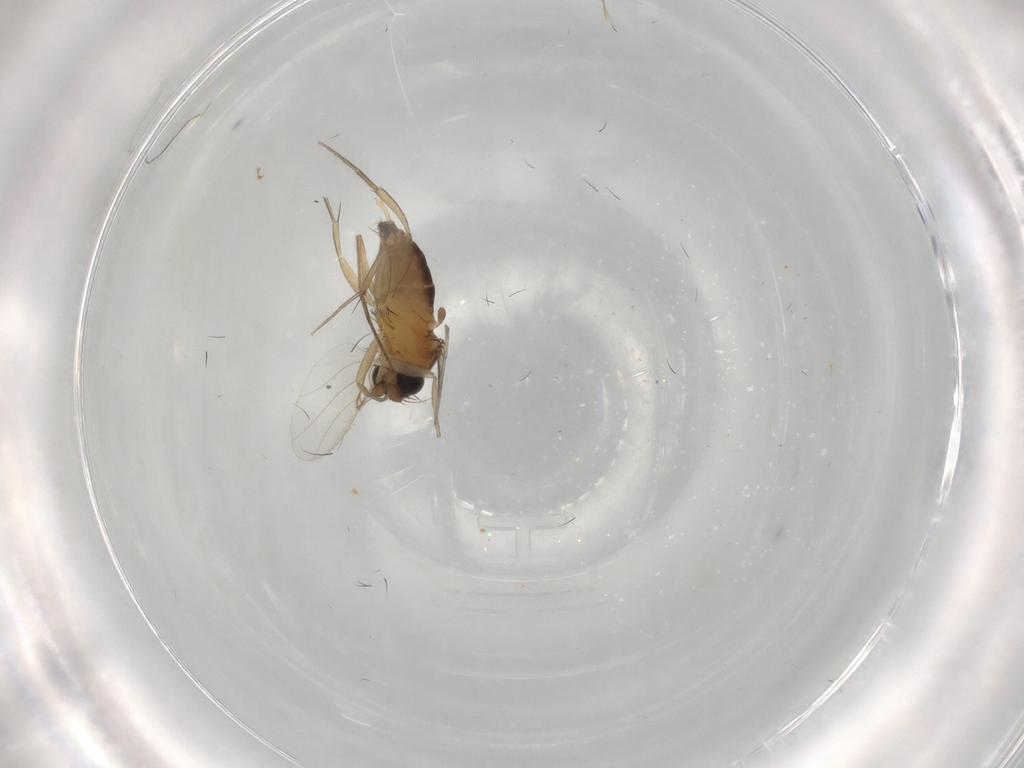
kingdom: Animalia
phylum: Arthropoda
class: Insecta
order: Diptera
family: Phoridae
